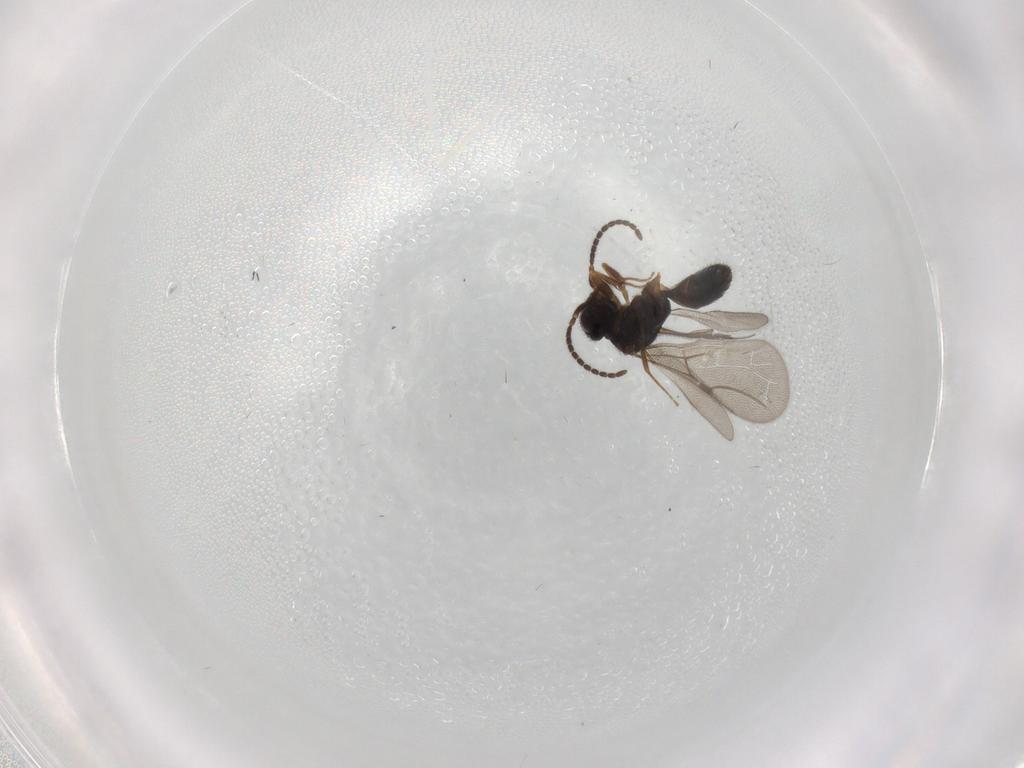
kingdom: Animalia
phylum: Arthropoda
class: Insecta
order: Hymenoptera
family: Bethylidae
